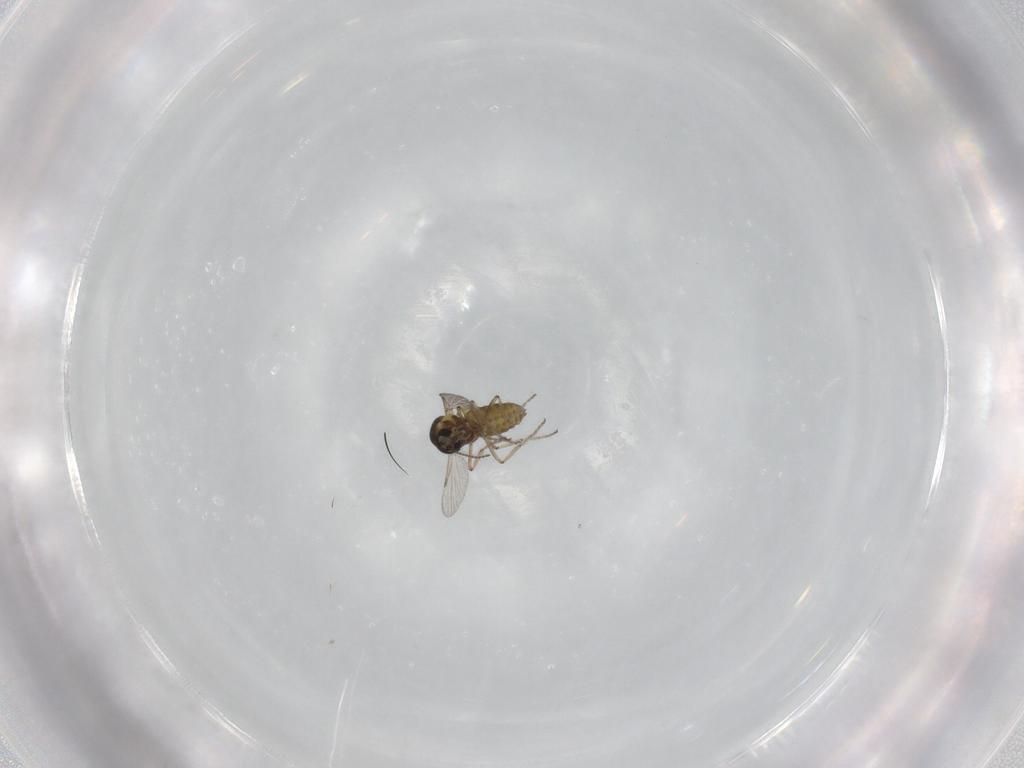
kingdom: Animalia
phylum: Arthropoda
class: Insecta
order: Diptera
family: Ceratopogonidae
